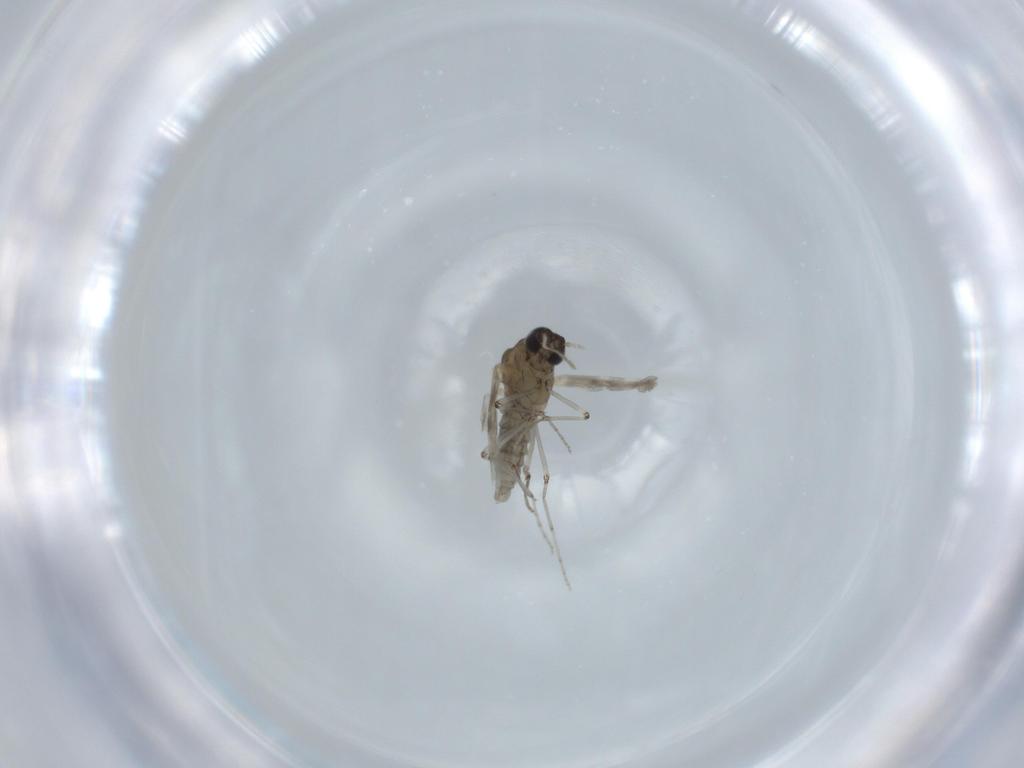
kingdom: Animalia
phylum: Arthropoda
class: Insecta
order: Diptera
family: Ceratopogonidae
